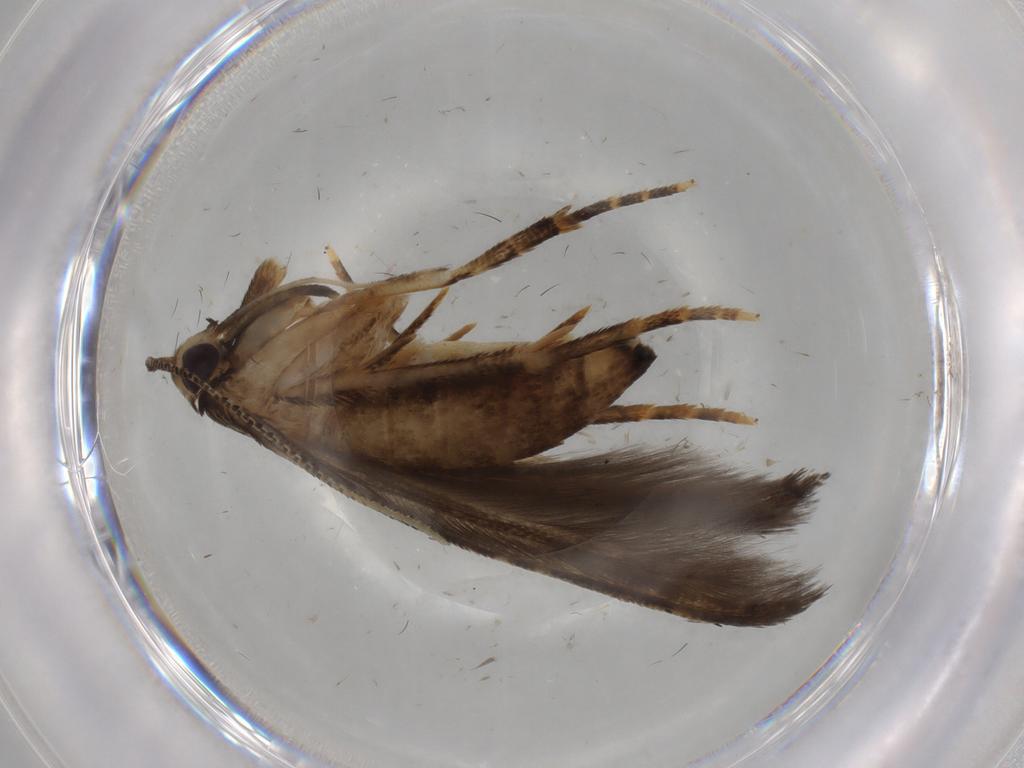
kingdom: Animalia
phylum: Arthropoda
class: Insecta
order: Lepidoptera
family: Cosmopterigidae
